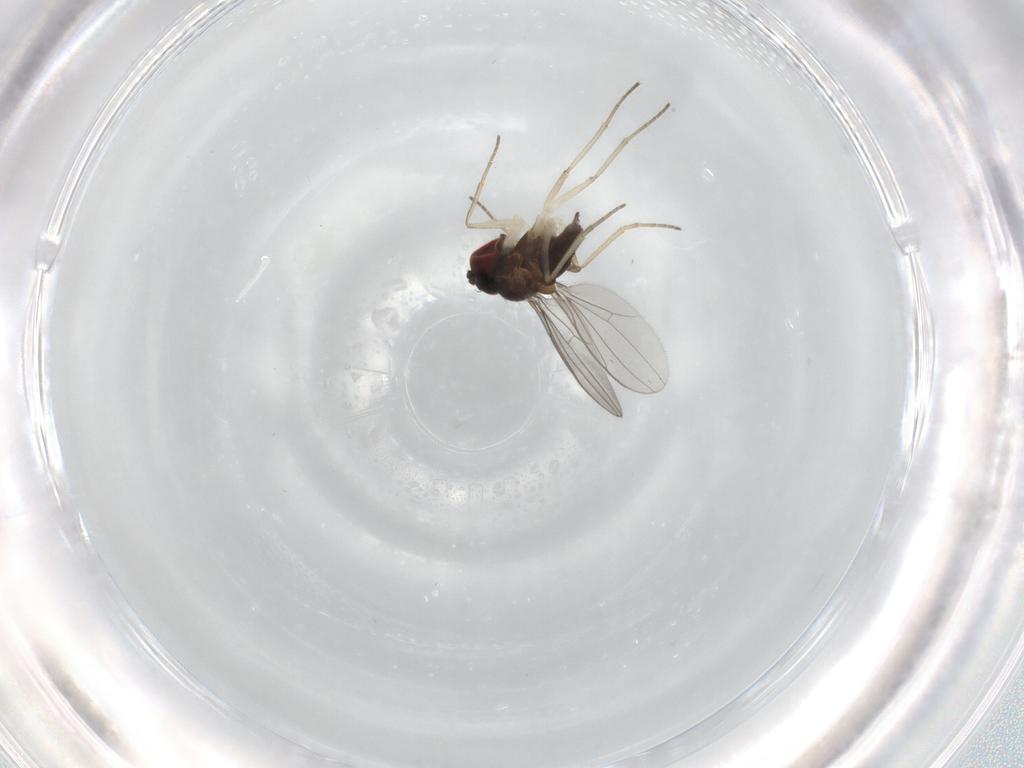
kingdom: Animalia
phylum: Arthropoda
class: Insecta
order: Diptera
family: Dolichopodidae
